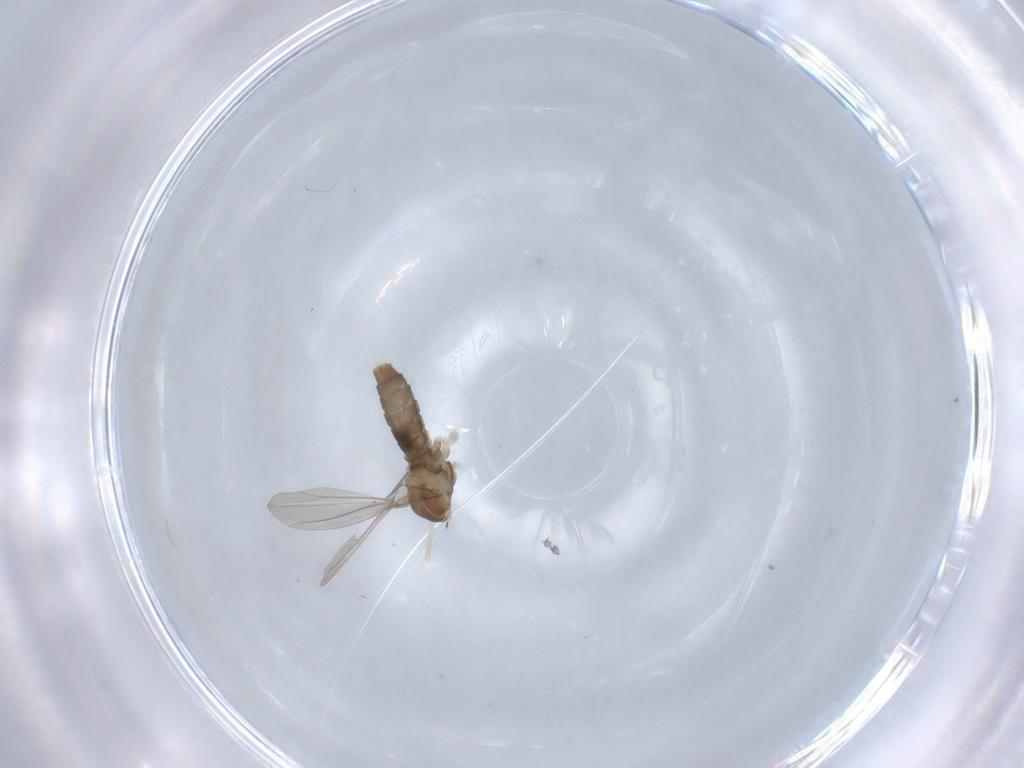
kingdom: Animalia
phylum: Arthropoda
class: Insecta
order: Diptera
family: Cecidomyiidae
